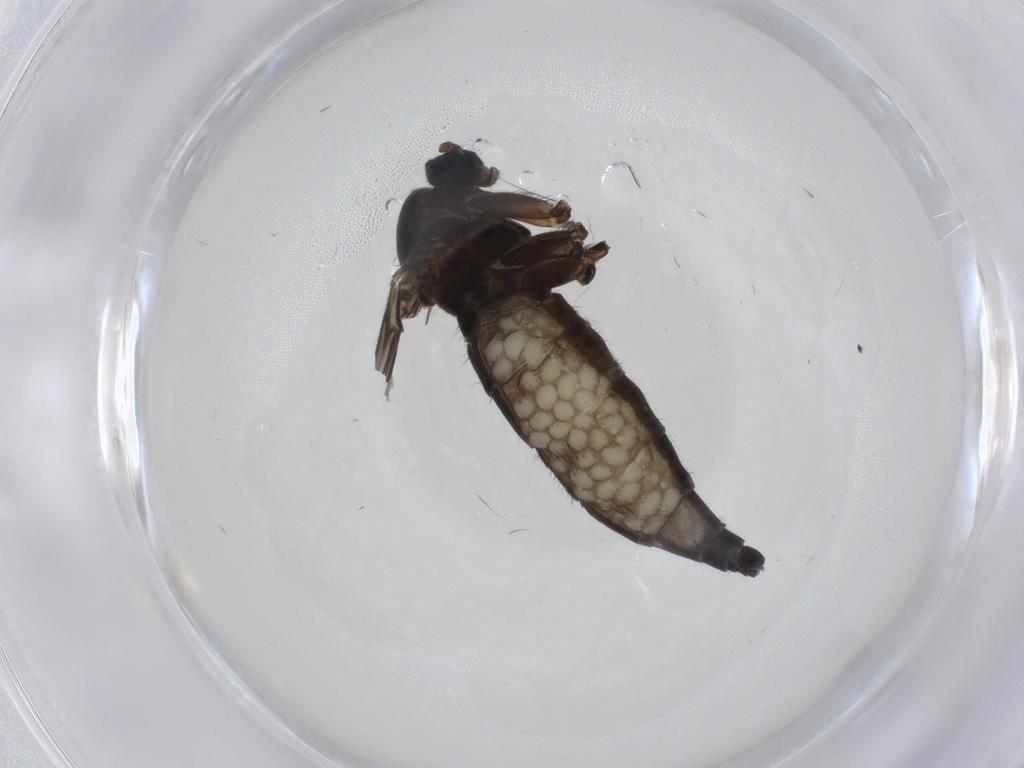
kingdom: Animalia
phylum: Arthropoda
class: Insecta
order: Diptera
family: Sciaridae
